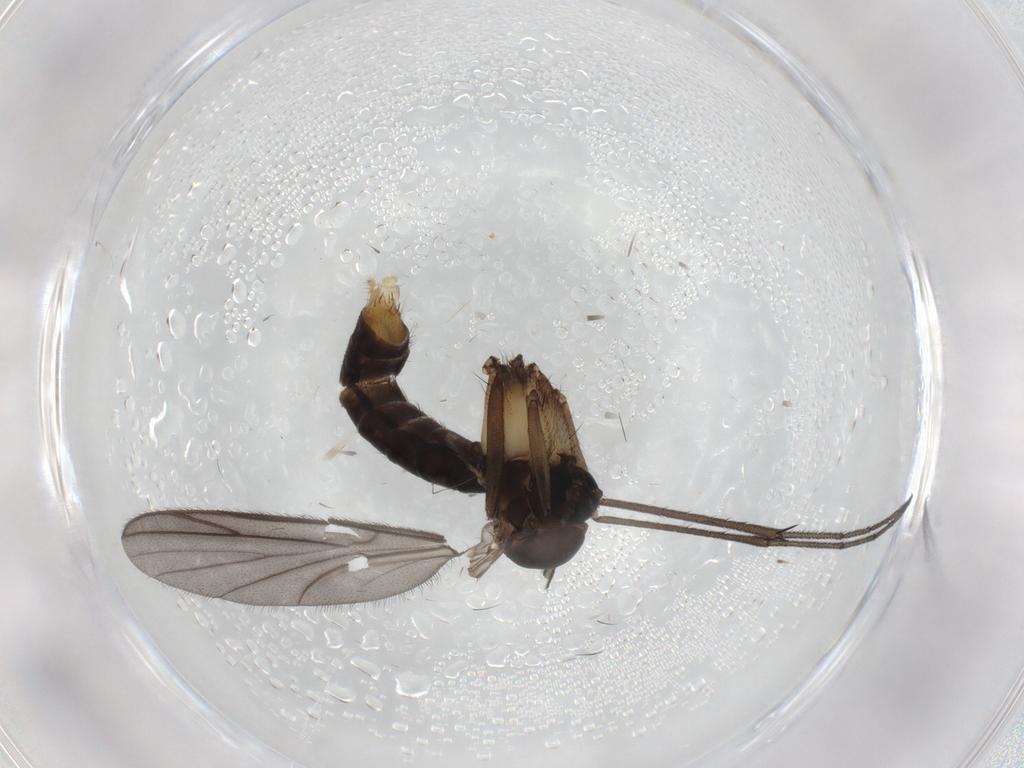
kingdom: Animalia
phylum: Arthropoda
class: Insecta
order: Diptera
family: Ditomyiidae
